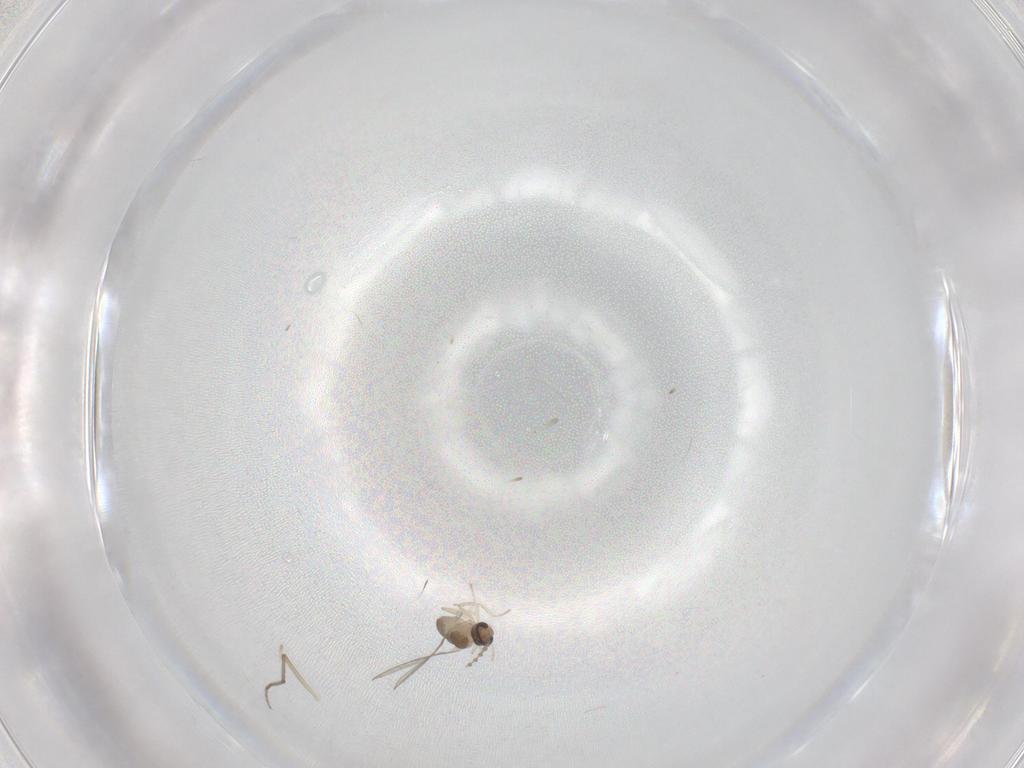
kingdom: Animalia
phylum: Arthropoda
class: Insecta
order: Diptera
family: Cecidomyiidae
